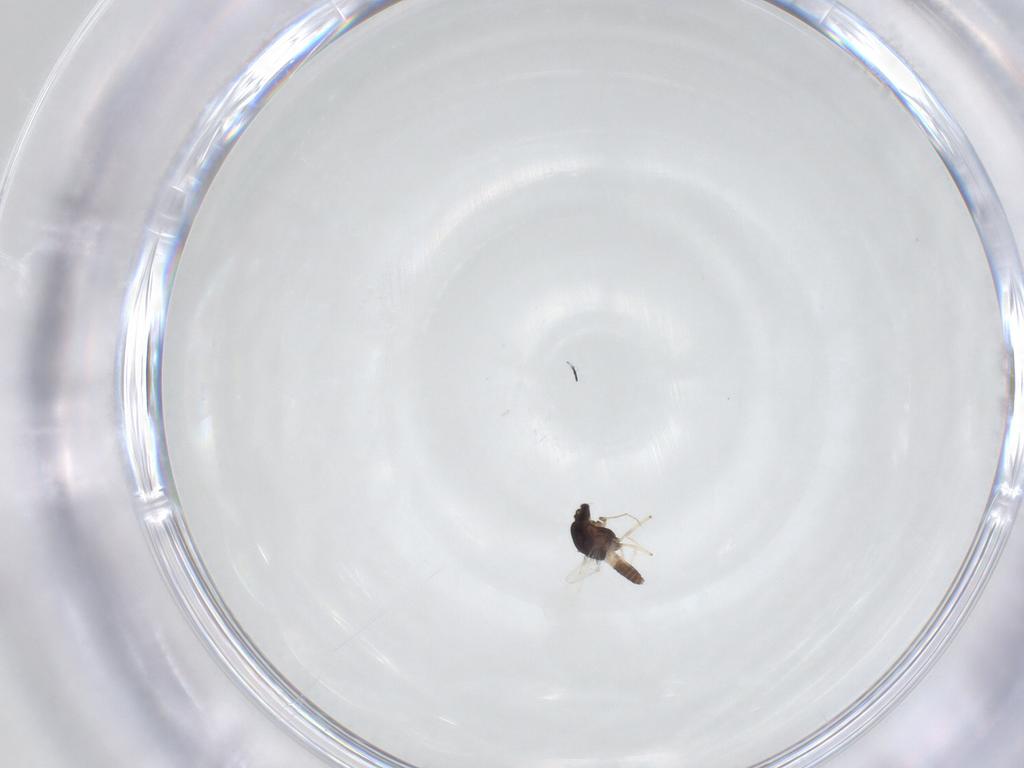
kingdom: Animalia
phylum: Arthropoda
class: Insecta
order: Diptera
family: Chironomidae
